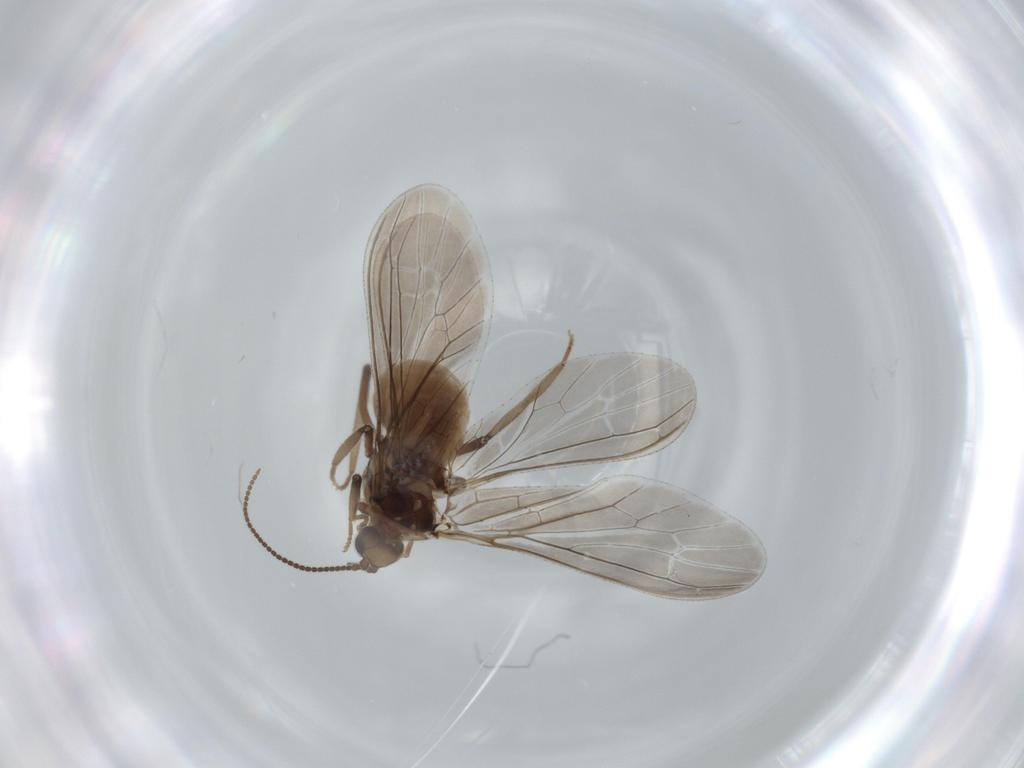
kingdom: Animalia
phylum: Arthropoda
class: Insecta
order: Neuroptera
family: Coniopterygidae
